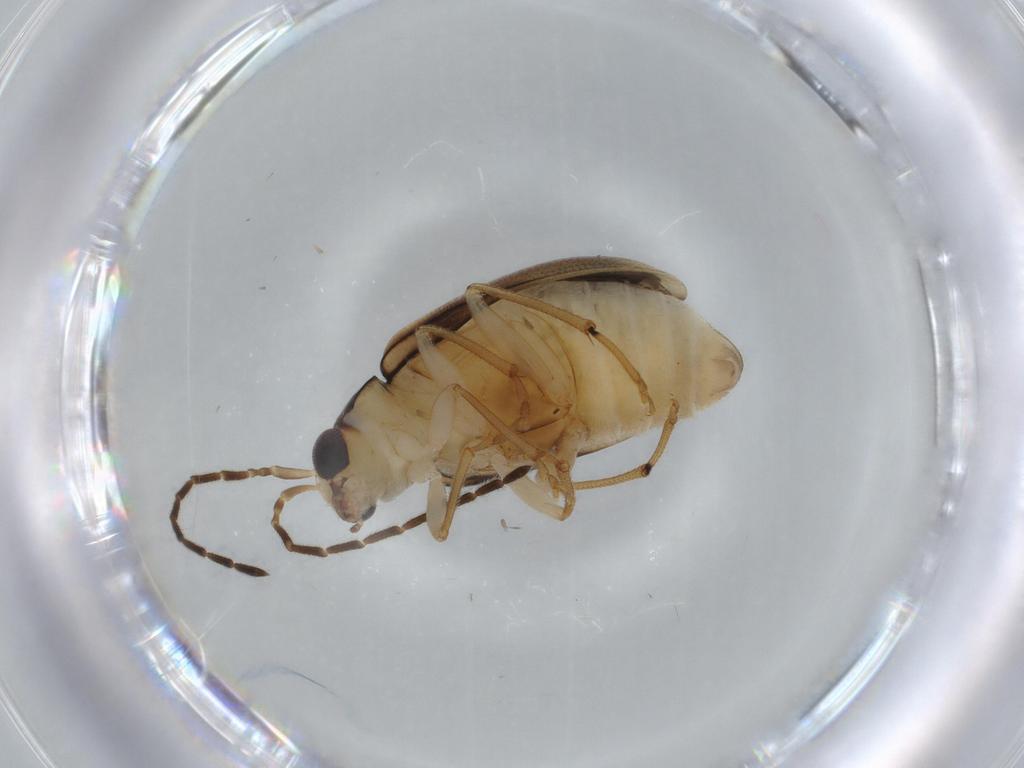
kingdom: Animalia
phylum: Arthropoda
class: Insecta
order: Coleoptera
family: Chrysomelidae
